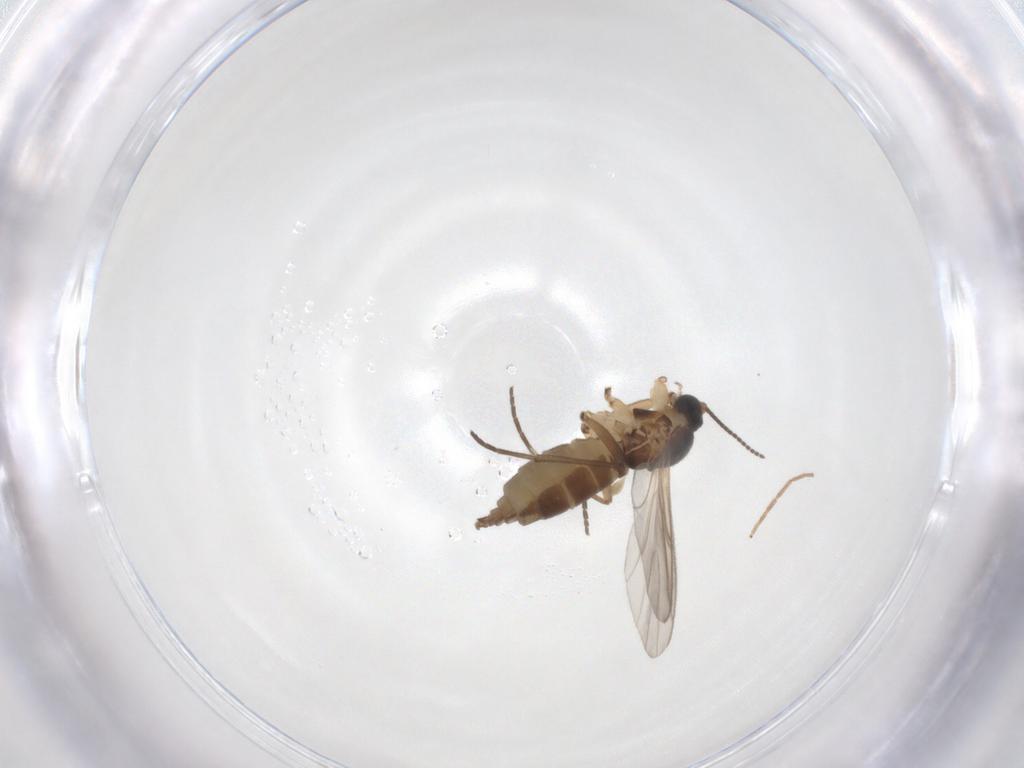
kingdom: Animalia
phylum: Arthropoda
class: Insecta
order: Diptera
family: Chironomidae
